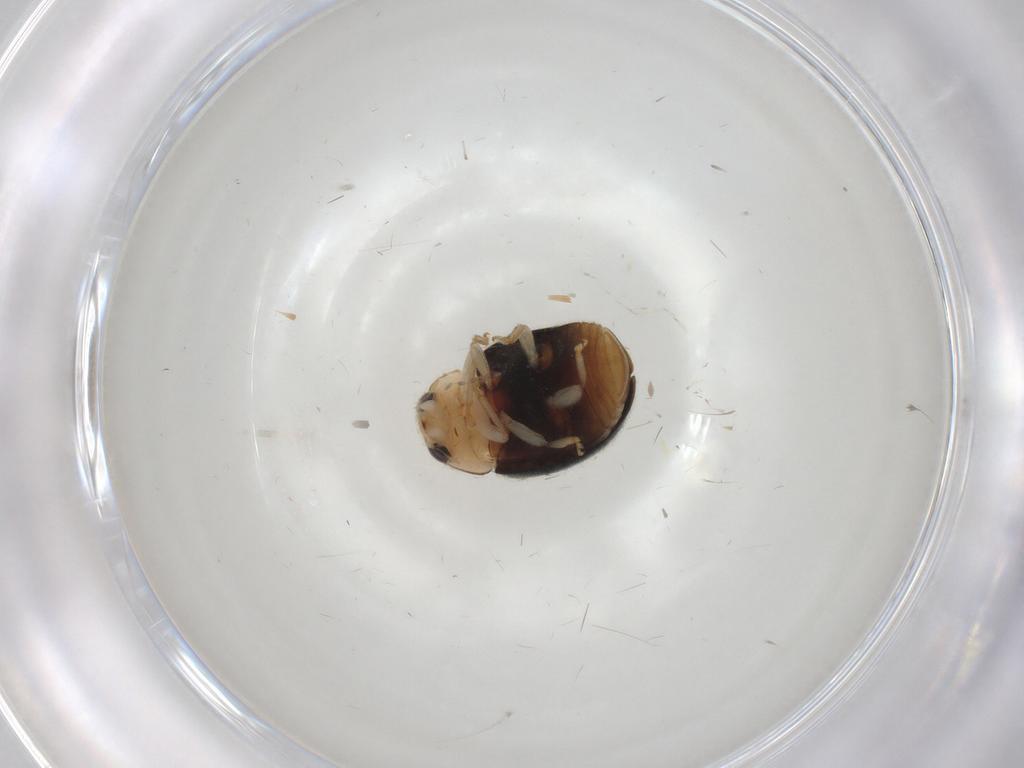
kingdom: Animalia
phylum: Arthropoda
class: Insecta
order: Coleoptera
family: Coccinellidae
